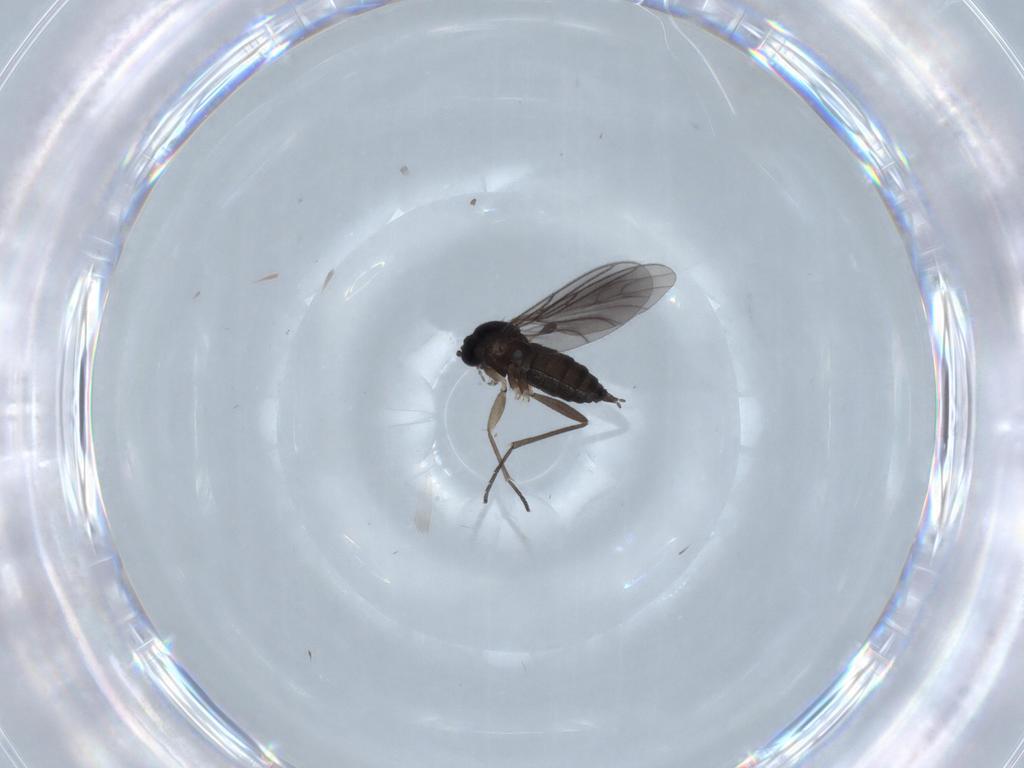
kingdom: Animalia
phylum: Arthropoda
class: Insecta
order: Diptera
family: Sciaridae
